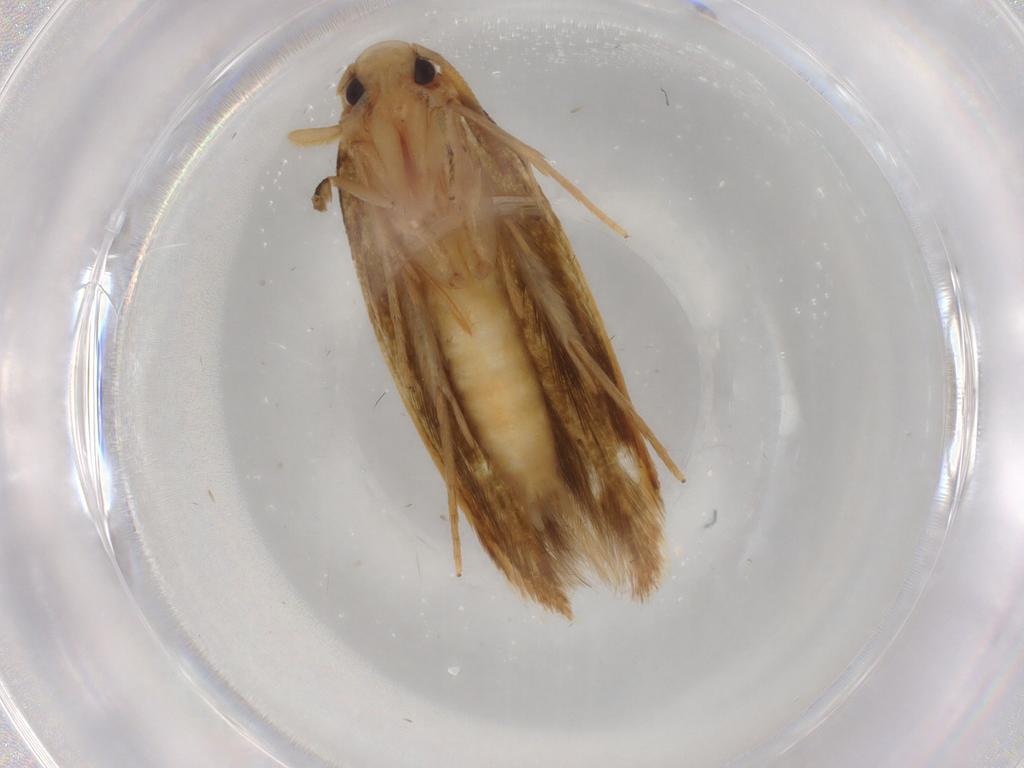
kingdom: Animalia
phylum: Arthropoda
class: Insecta
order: Lepidoptera
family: Tineidae
